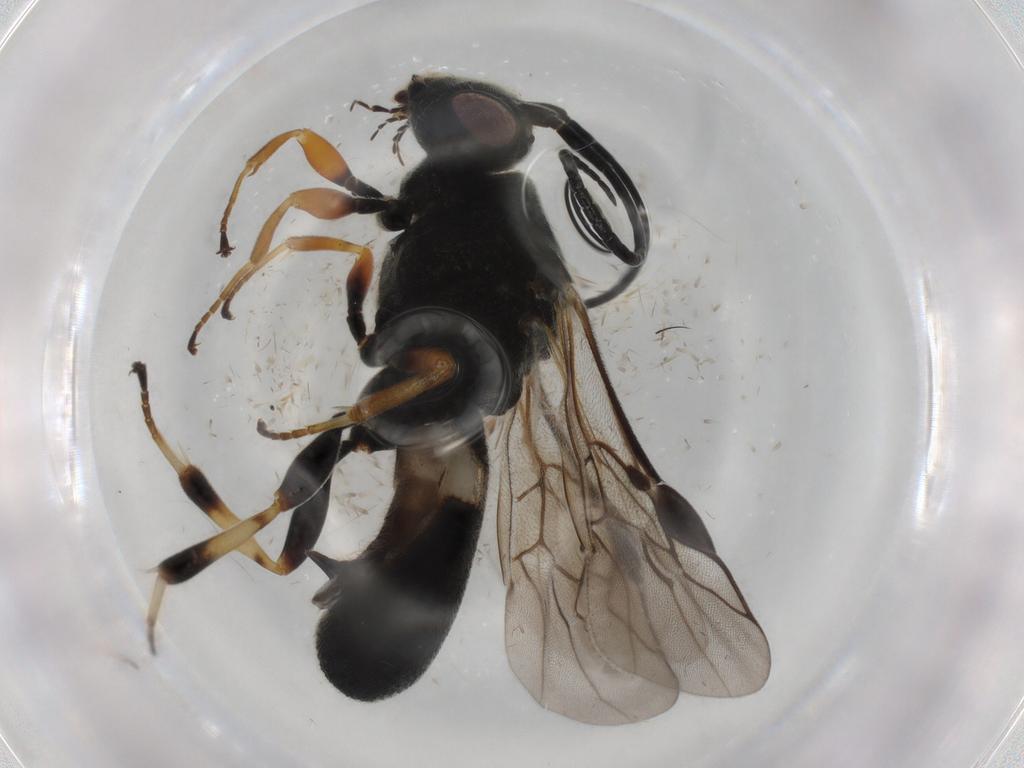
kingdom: Animalia
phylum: Arthropoda
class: Insecta
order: Hymenoptera
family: Braconidae
